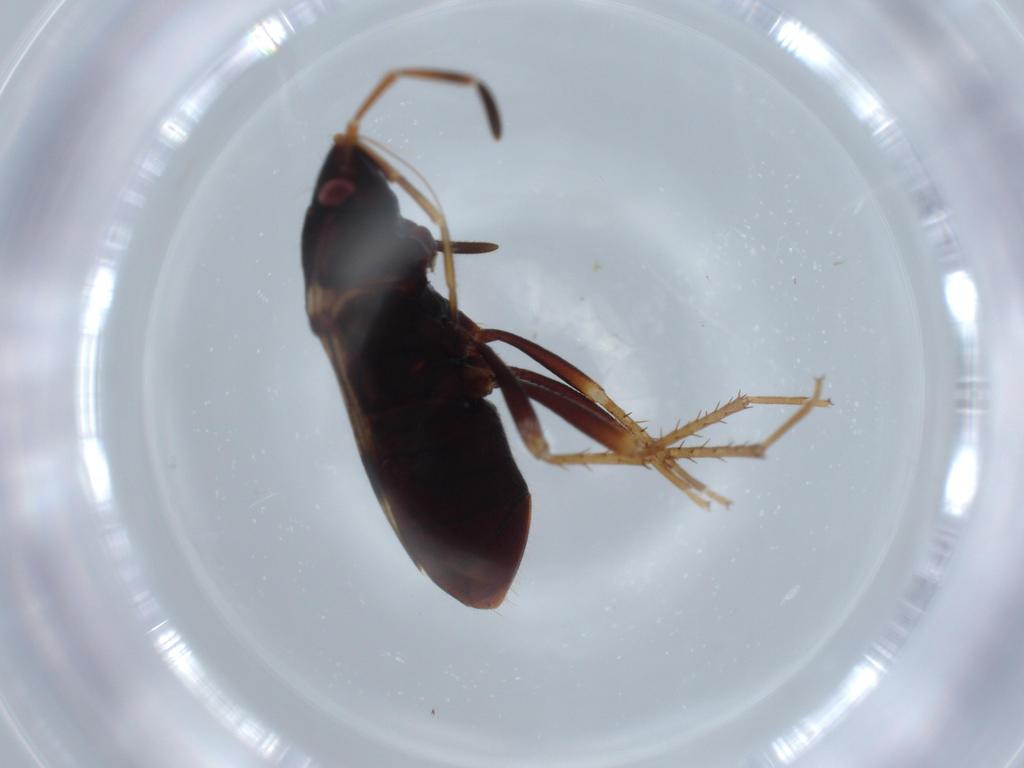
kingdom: Animalia
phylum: Arthropoda
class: Insecta
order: Hemiptera
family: Rhyparochromidae
